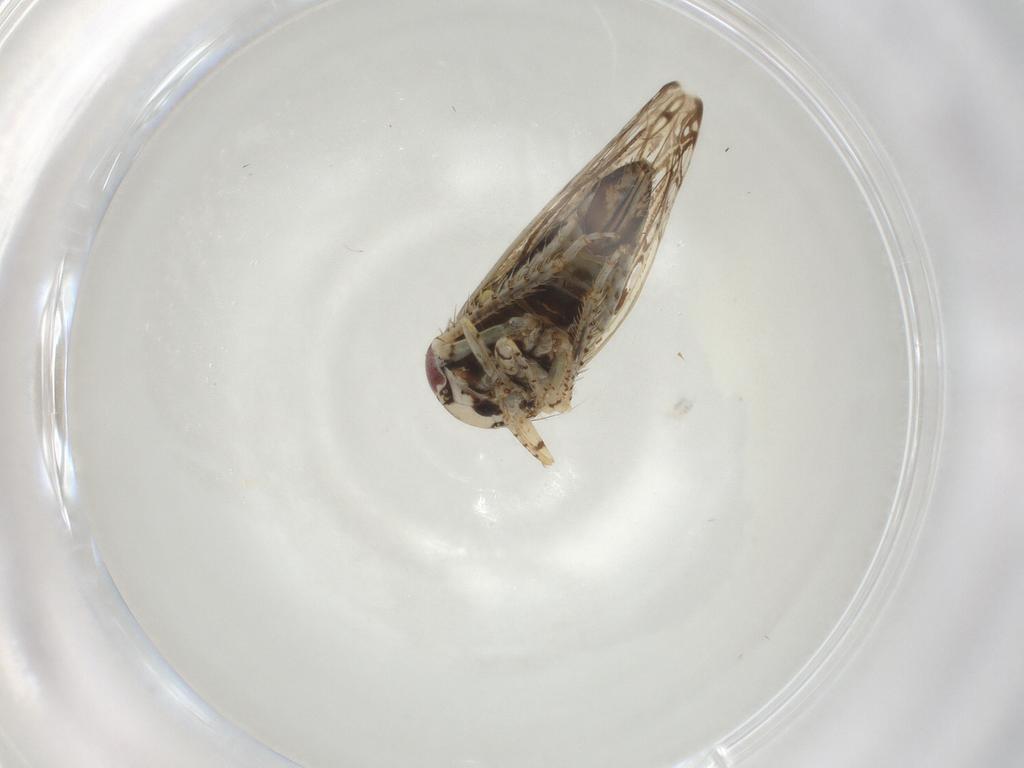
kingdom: Animalia
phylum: Arthropoda
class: Insecta
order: Hemiptera
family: Cicadellidae
